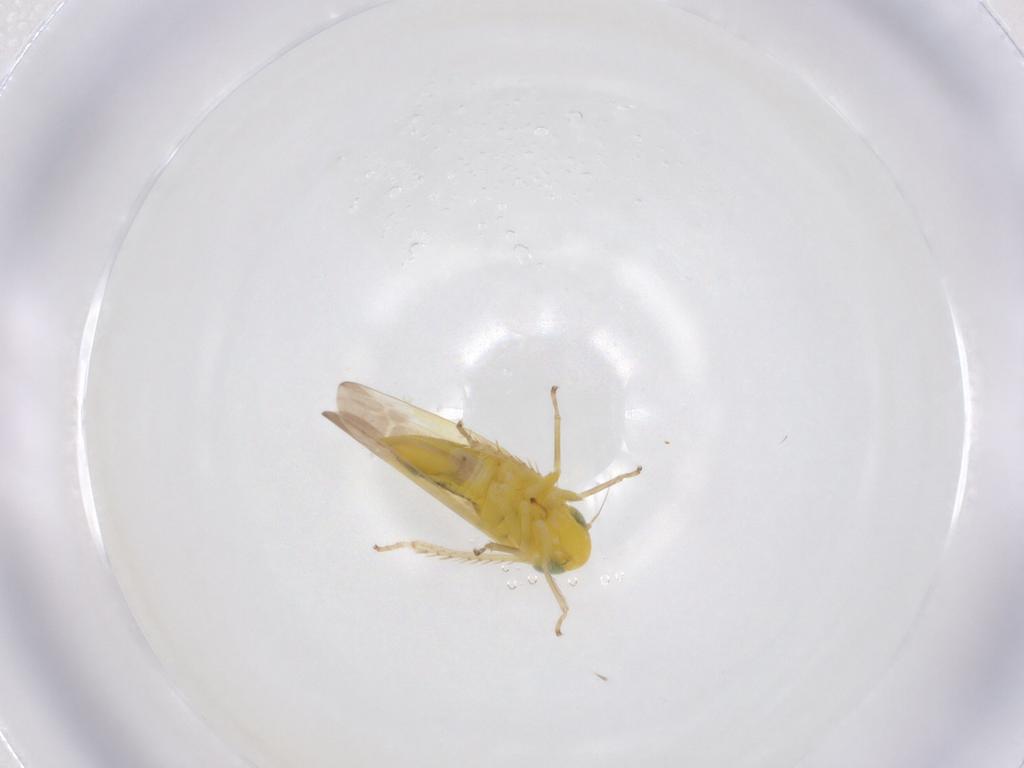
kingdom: Animalia
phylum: Arthropoda
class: Insecta
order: Hemiptera
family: Cicadellidae
